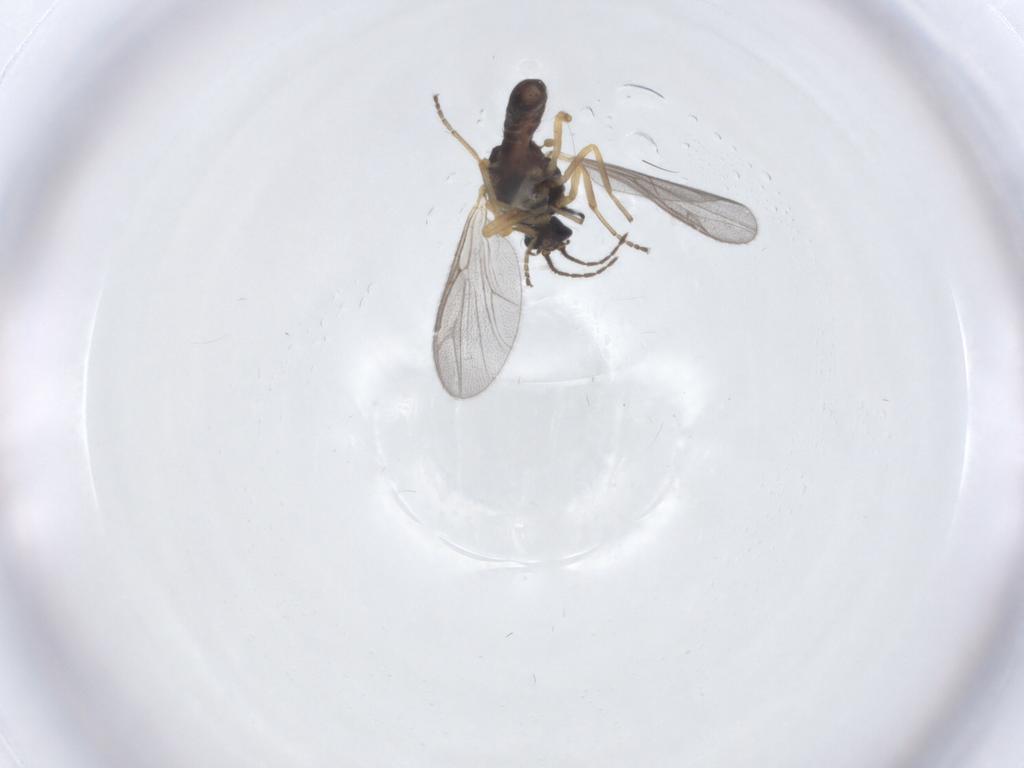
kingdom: Animalia
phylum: Arthropoda
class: Insecta
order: Diptera
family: Ceratopogonidae
